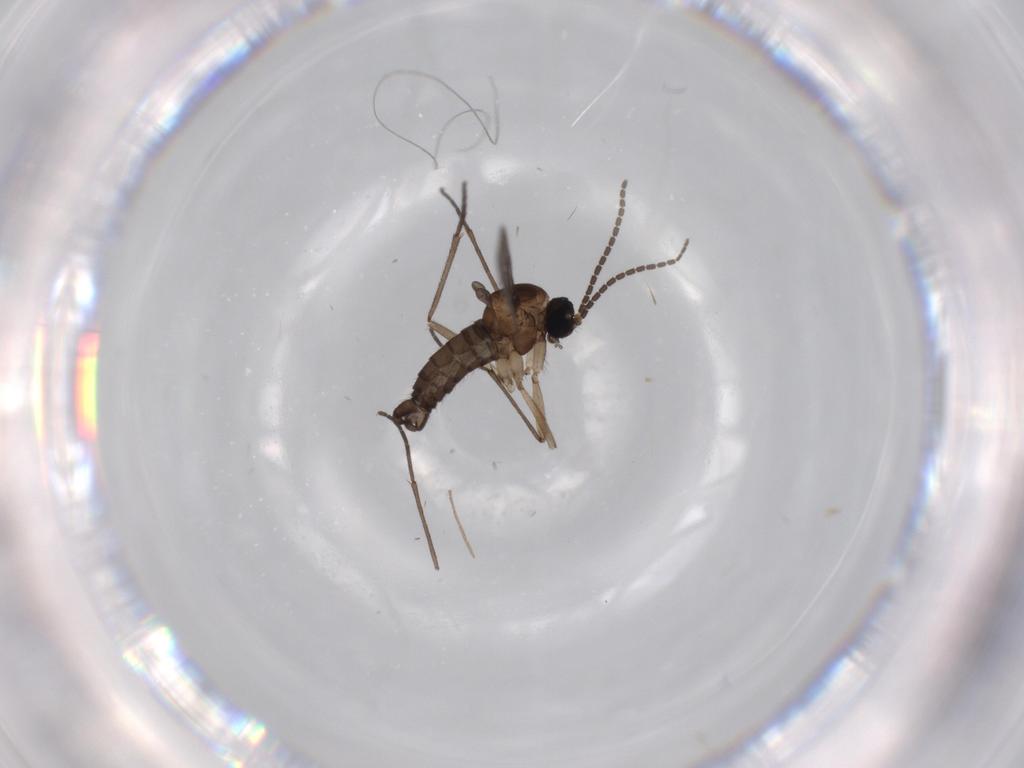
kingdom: Animalia
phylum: Arthropoda
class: Insecta
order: Diptera
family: Sciaridae
